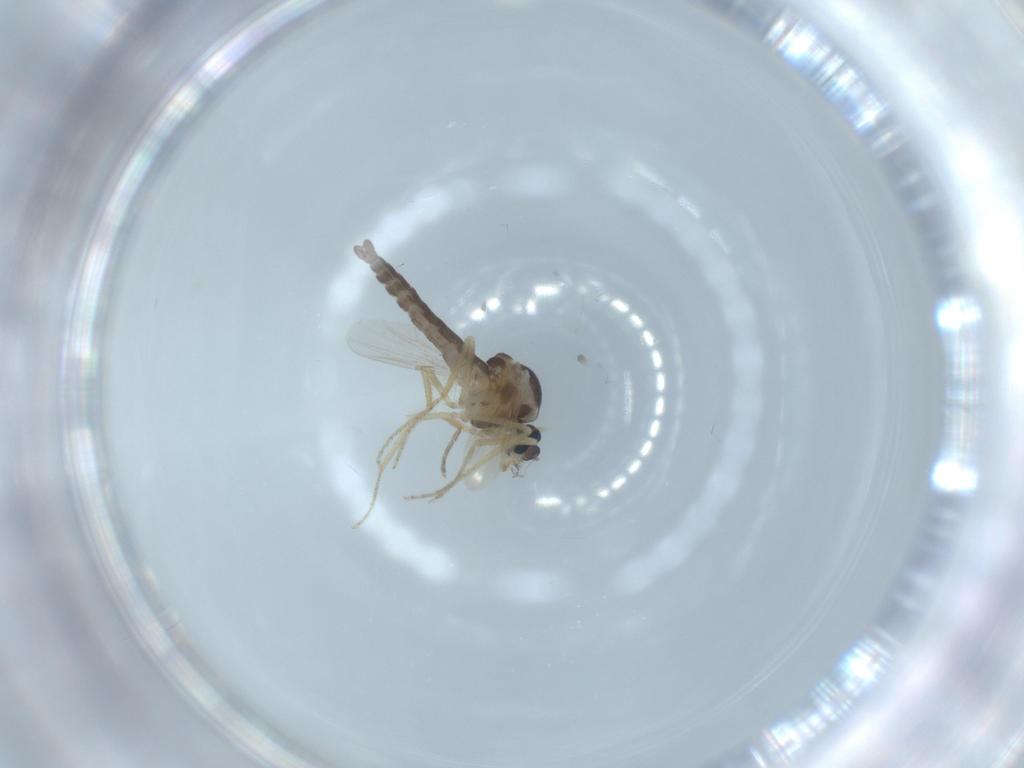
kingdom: Animalia
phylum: Arthropoda
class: Insecta
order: Diptera
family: Ceratopogonidae
